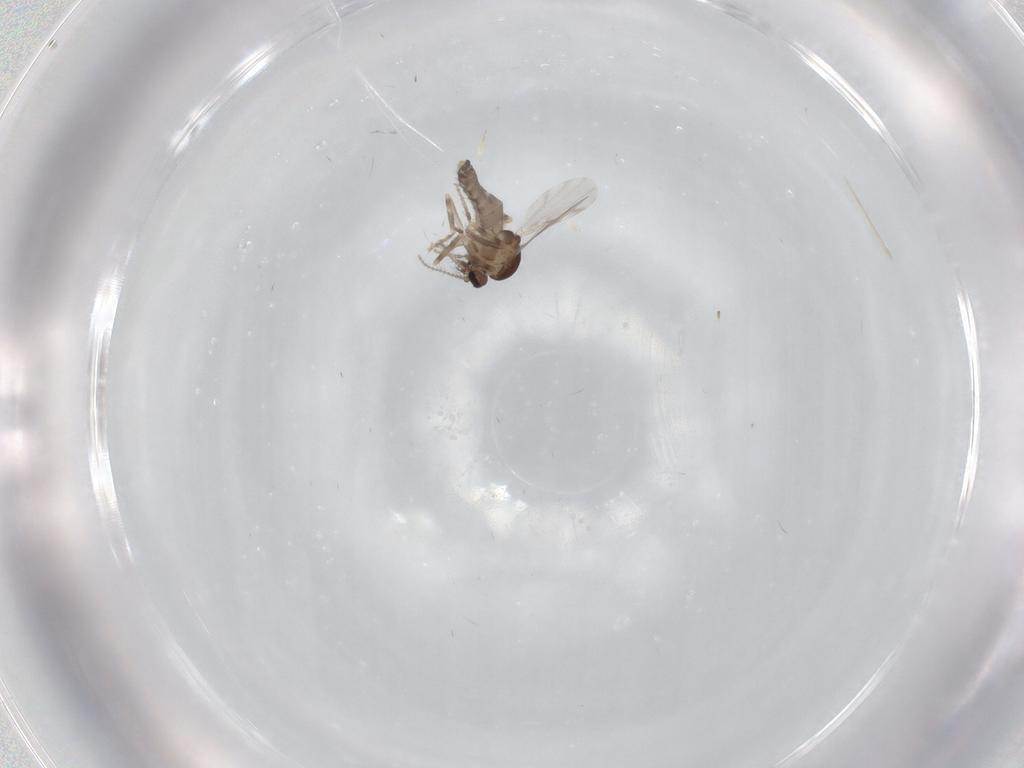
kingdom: Animalia
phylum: Arthropoda
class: Insecta
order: Diptera
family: Ceratopogonidae
